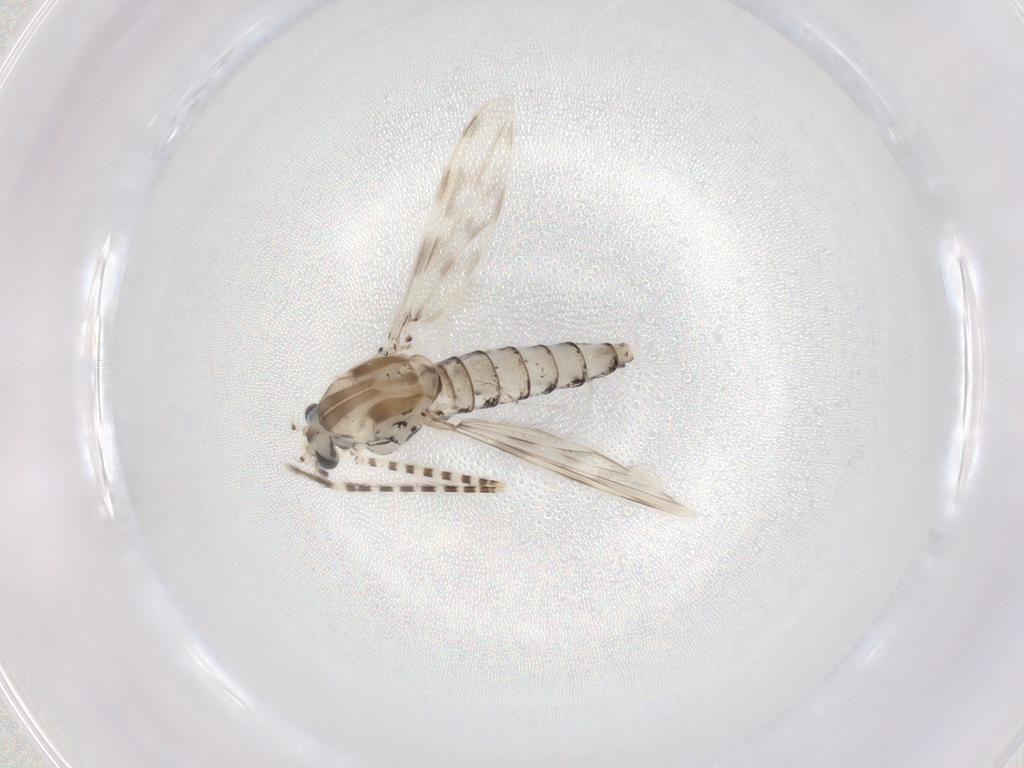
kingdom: Animalia
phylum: Arthropoda
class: Insecta
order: Diptera
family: Chaoboridae
